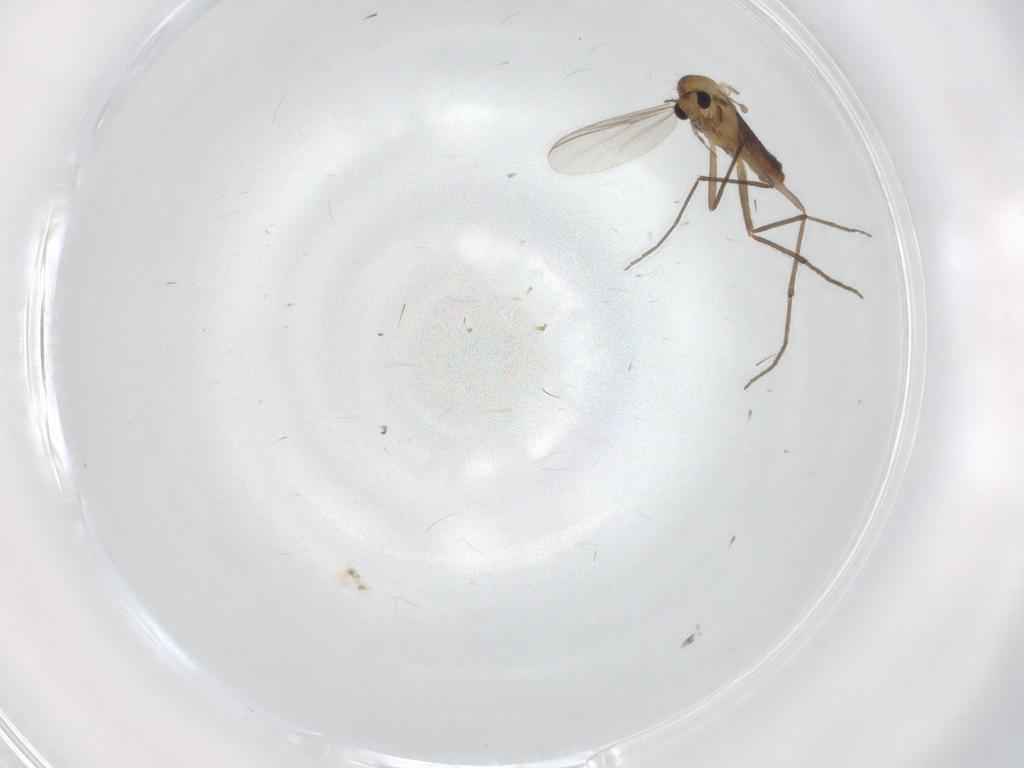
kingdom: Animalia
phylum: Arthropoda
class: Insecta
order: Diptera
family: Chironomidae
